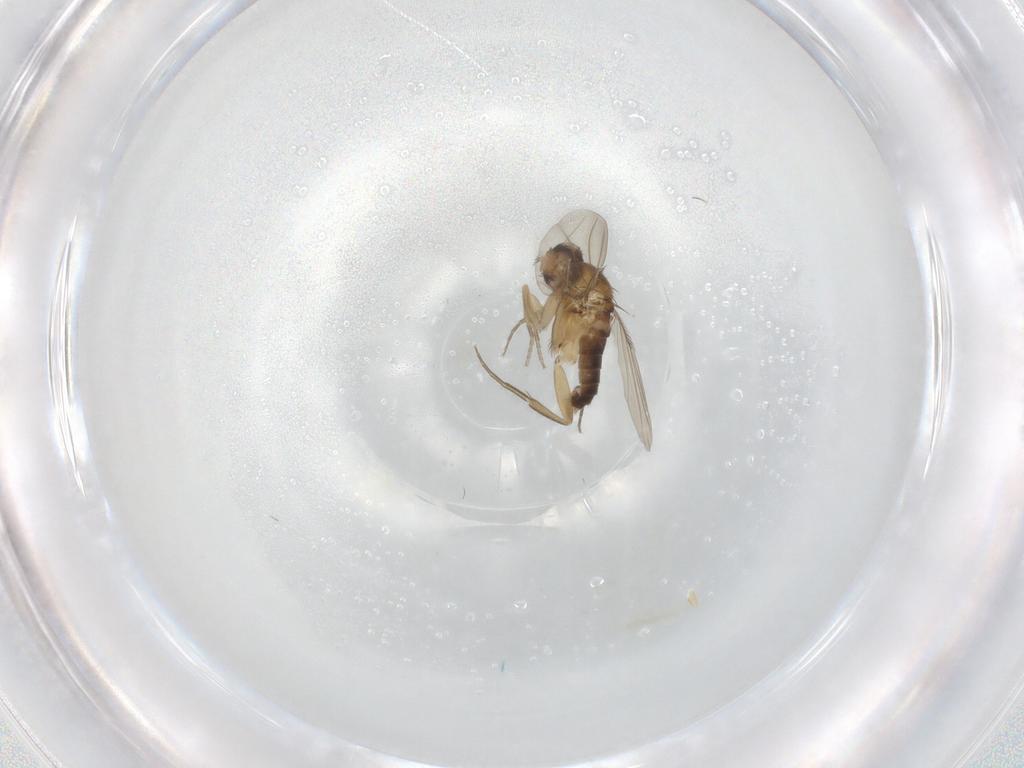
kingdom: Animalia
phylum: Arthropoda
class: Insecta
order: Diptera
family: Phoridae
